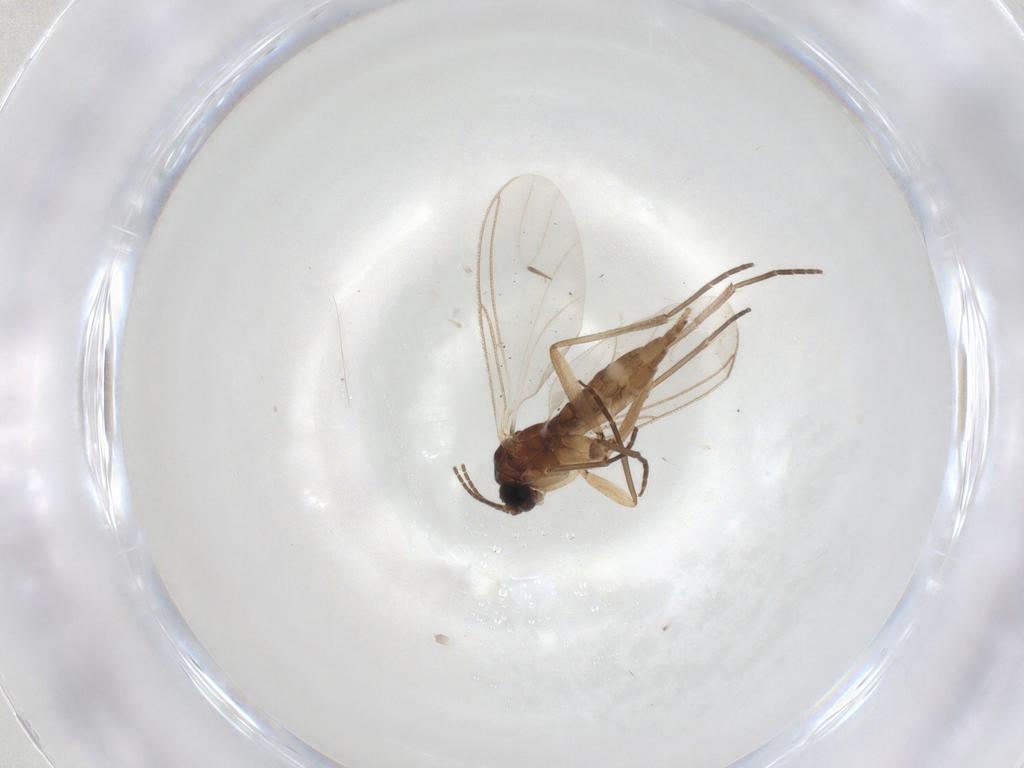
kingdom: Animalia
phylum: Arthropoda
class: Insecta
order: Diptera
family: Sciaridae
